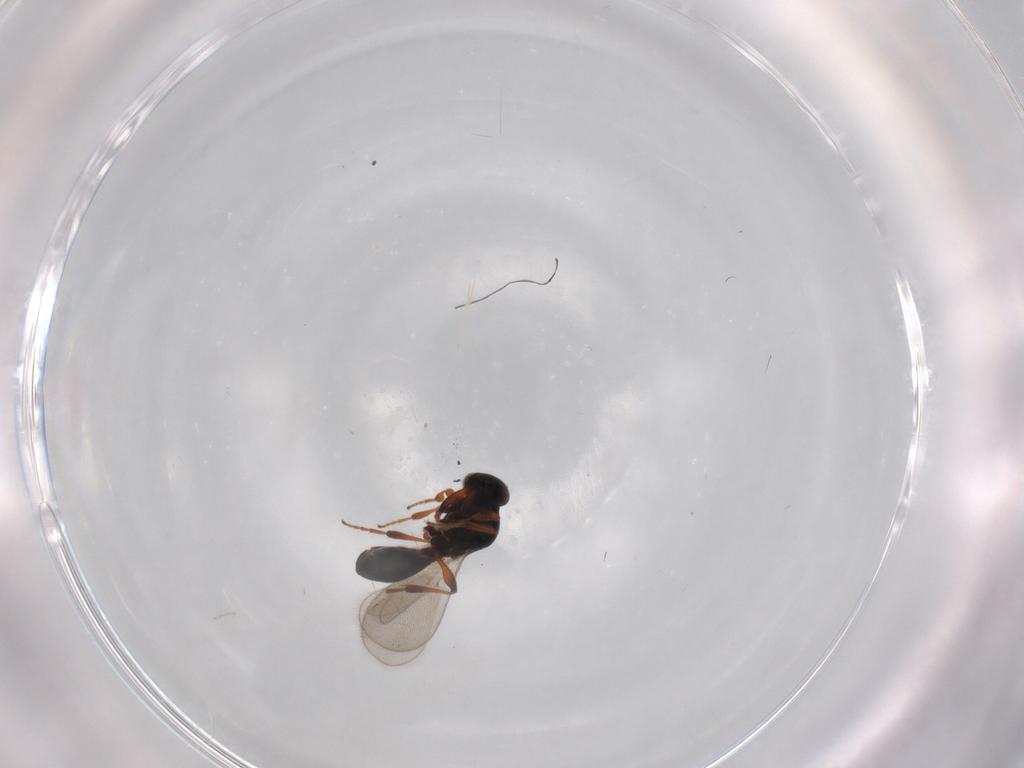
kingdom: Animalia
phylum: Arthropoda
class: Insecta
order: Hymenoptera
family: Platygastridae
